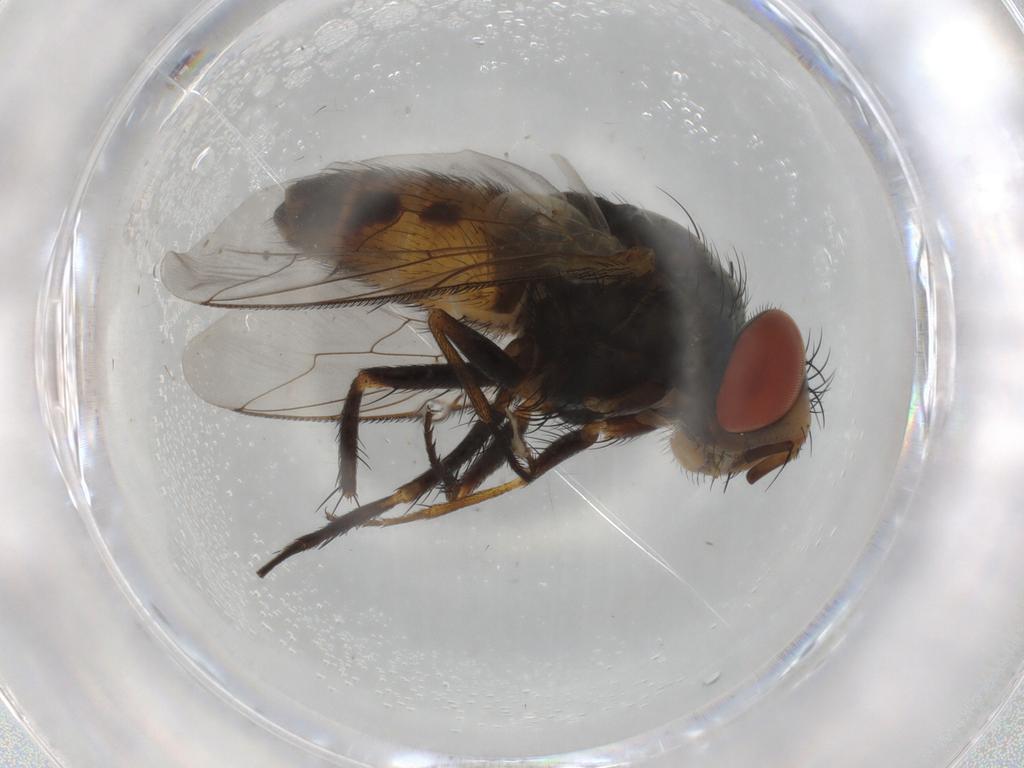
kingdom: Animalia
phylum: Arthropoda
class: Insecta
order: Diptera
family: Sarcophagidae
